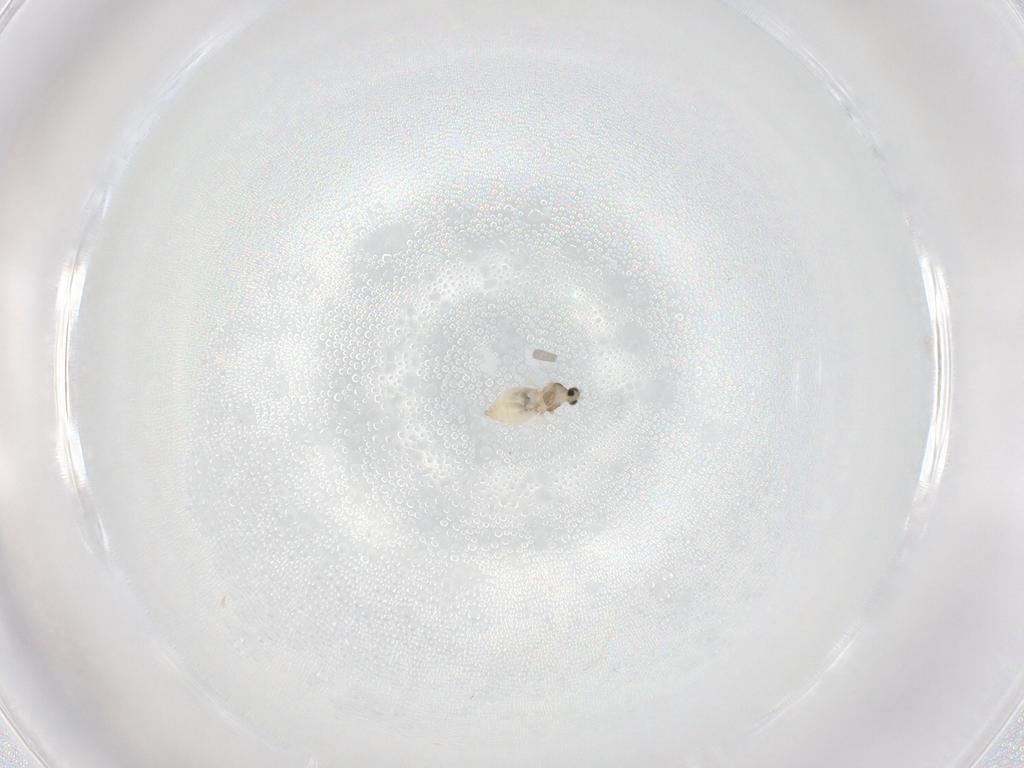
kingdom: Animalia
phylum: Arthropoda
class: Insecta
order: Diptera
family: Cecidomyiidae
